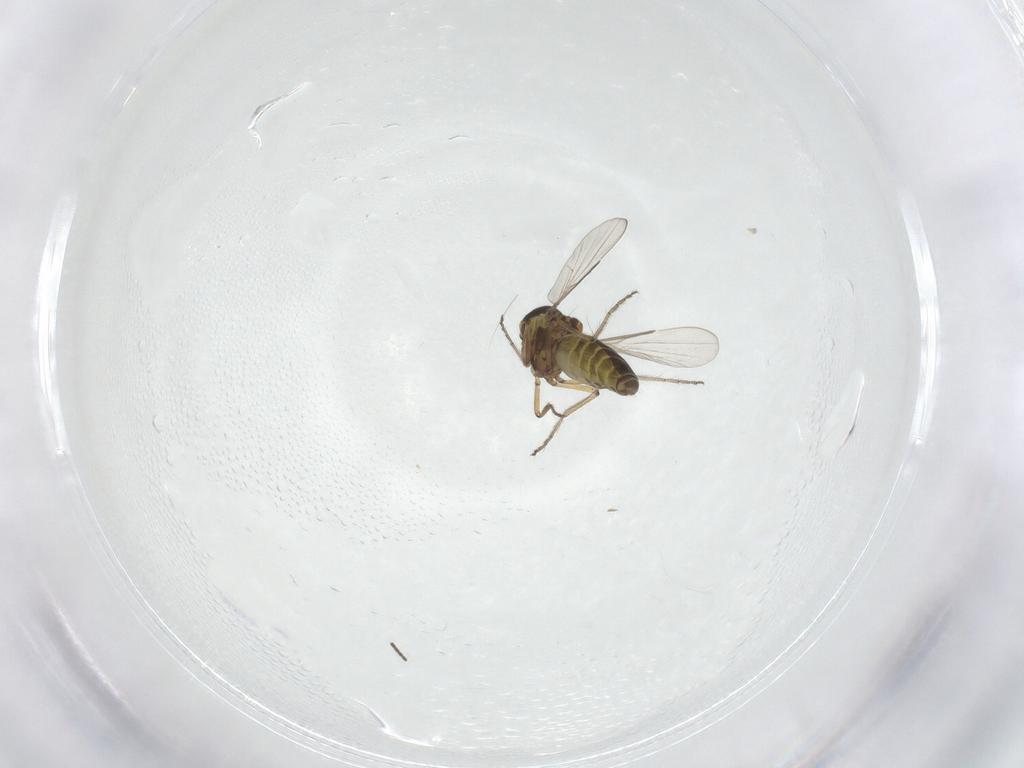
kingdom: Animalia
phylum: Arthropoda
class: Insecta
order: Diptera
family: Ceratopogonidae
